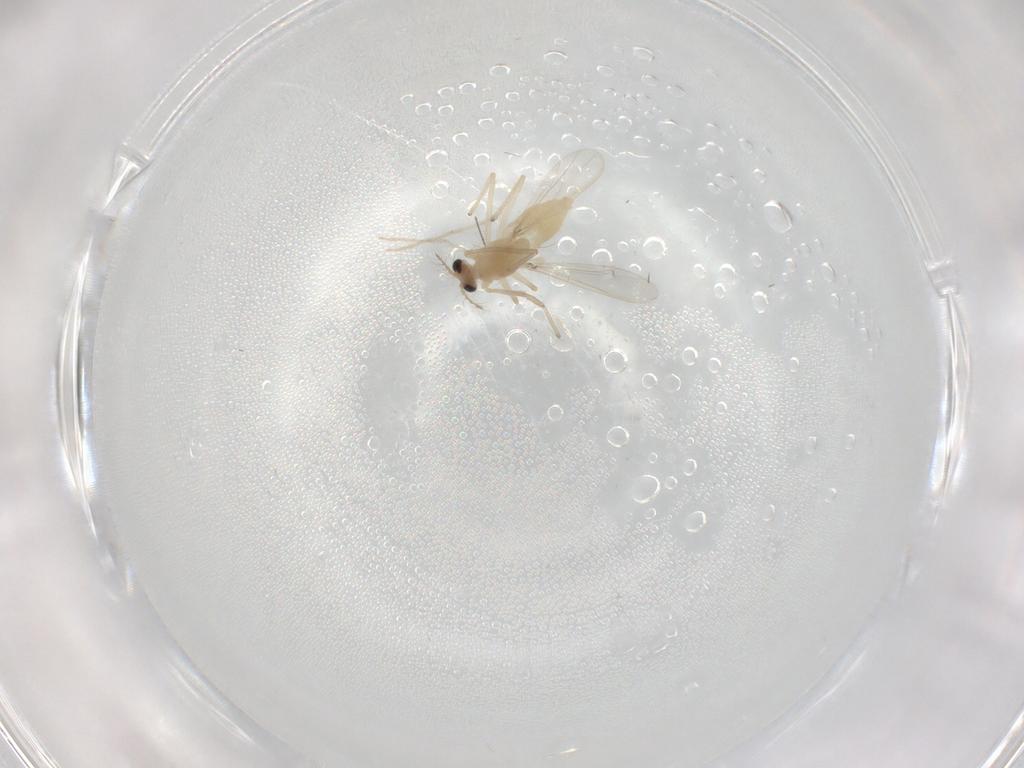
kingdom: Animalia
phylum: Arthropoda
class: Insecta
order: Diptera
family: Chironomidae
